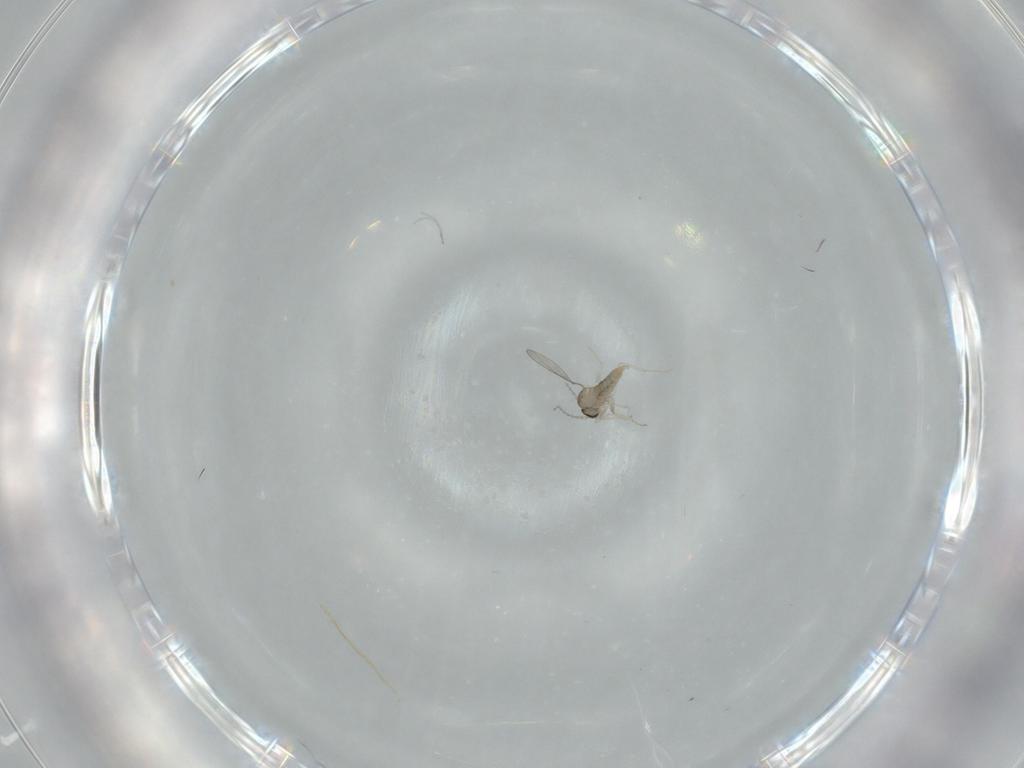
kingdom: Animalia
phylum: Arthropoda
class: Insecta
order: Diptera
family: Cecidomyiidae
